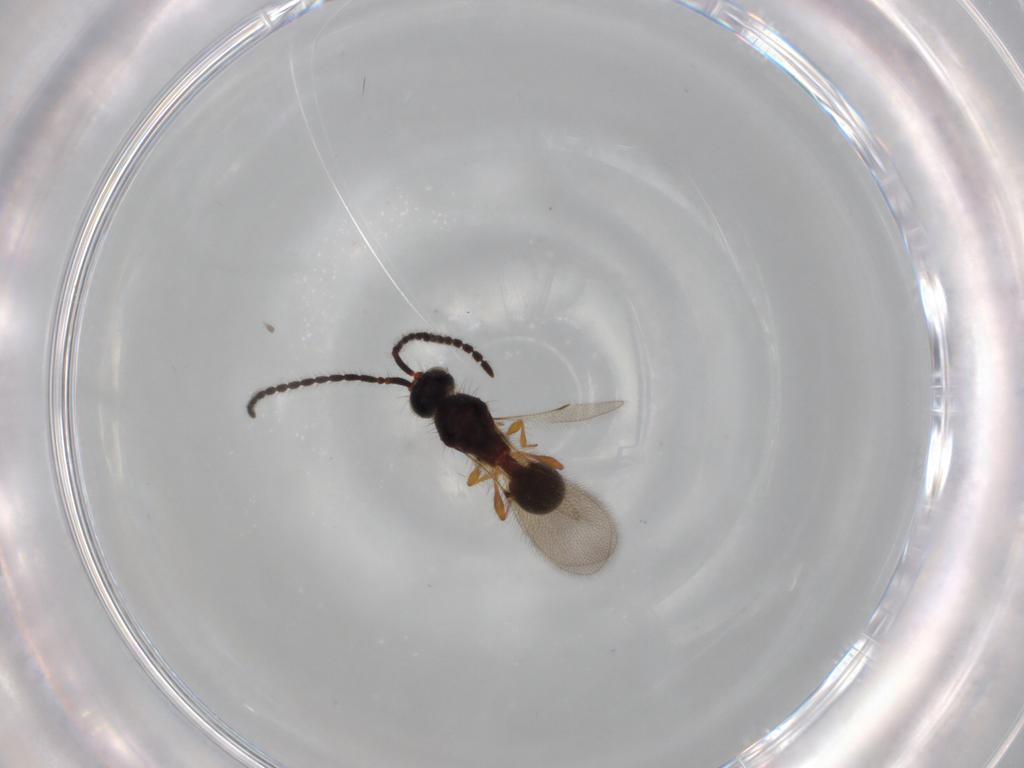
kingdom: Animalia
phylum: Arthropoda
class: Insecta
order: Hymenoptera
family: Diapriidae
